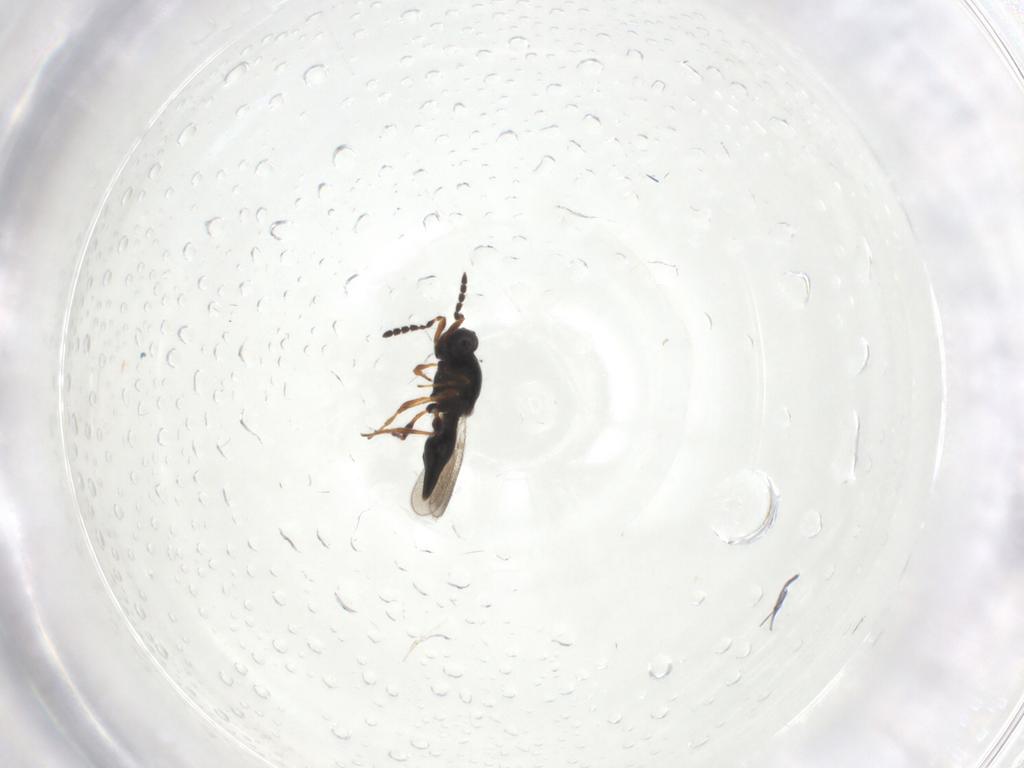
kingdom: Animalia
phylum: Arthropoda
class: Insecta
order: Hymenoptera
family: Platygastridae
